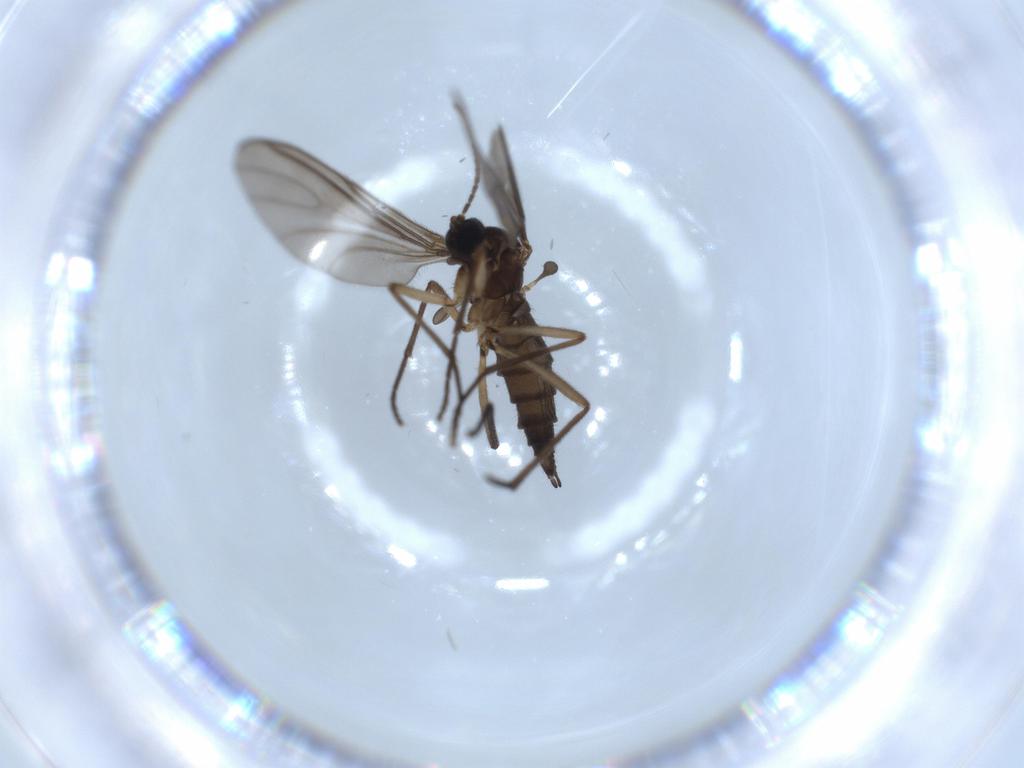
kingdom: Animalia
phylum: Arthropoda
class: Insecta
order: Diptera
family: Sciaridae
